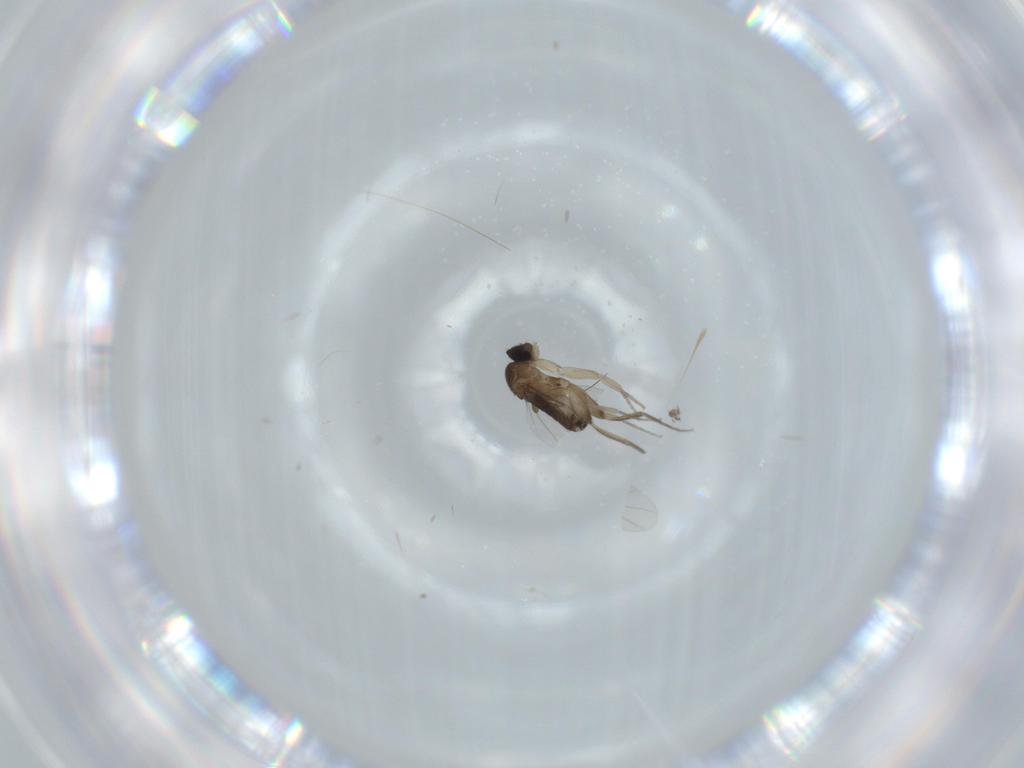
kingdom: Animalia
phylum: Arthropoda
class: Insecta
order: Diptera
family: Phoridae
